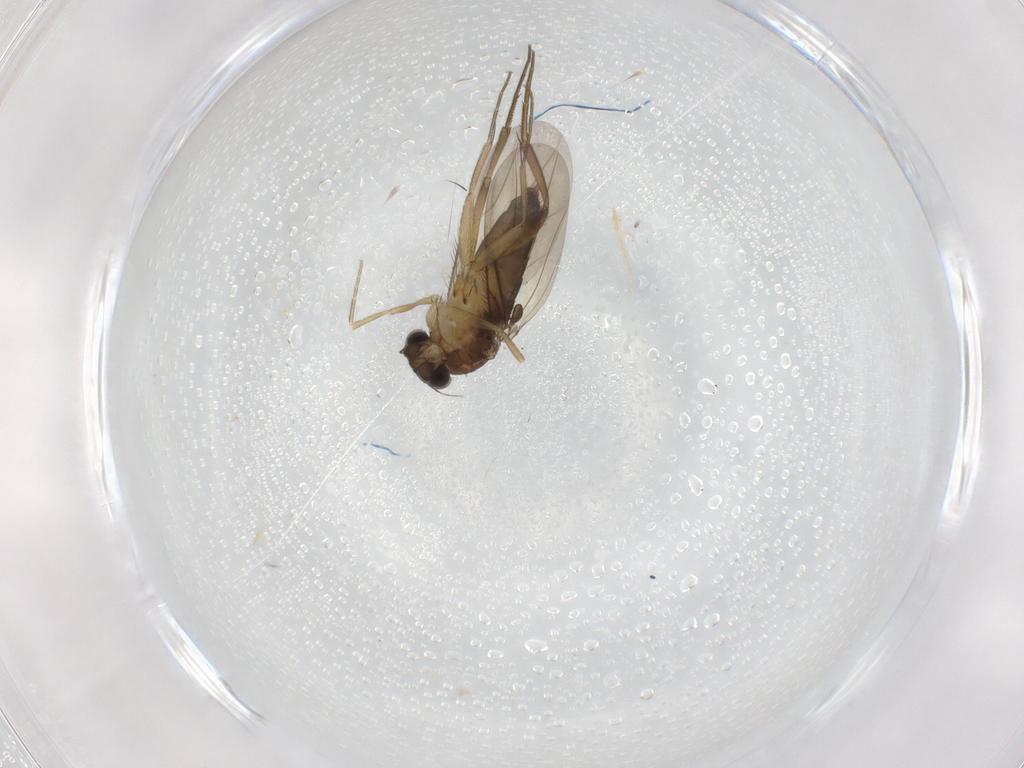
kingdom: Animalia
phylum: Arthropoda
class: Insecta
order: Diptera
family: Phoridae
